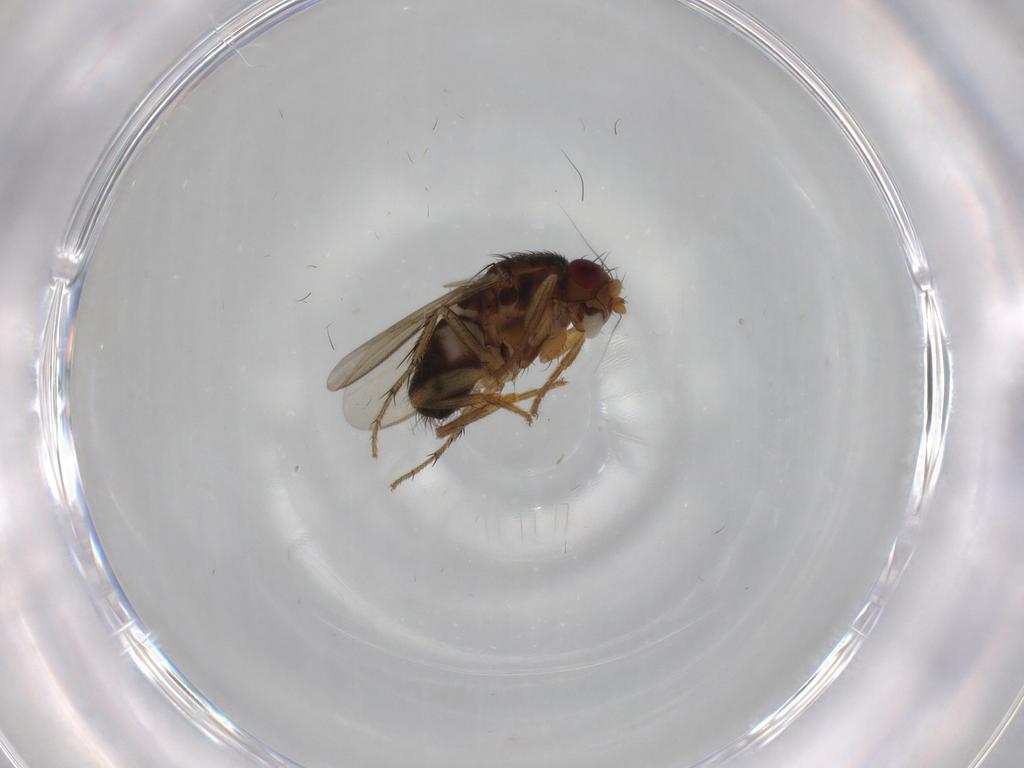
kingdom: Animalia
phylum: Arthropoda
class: Insecta
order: Diptera
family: Sphaeroceridae
